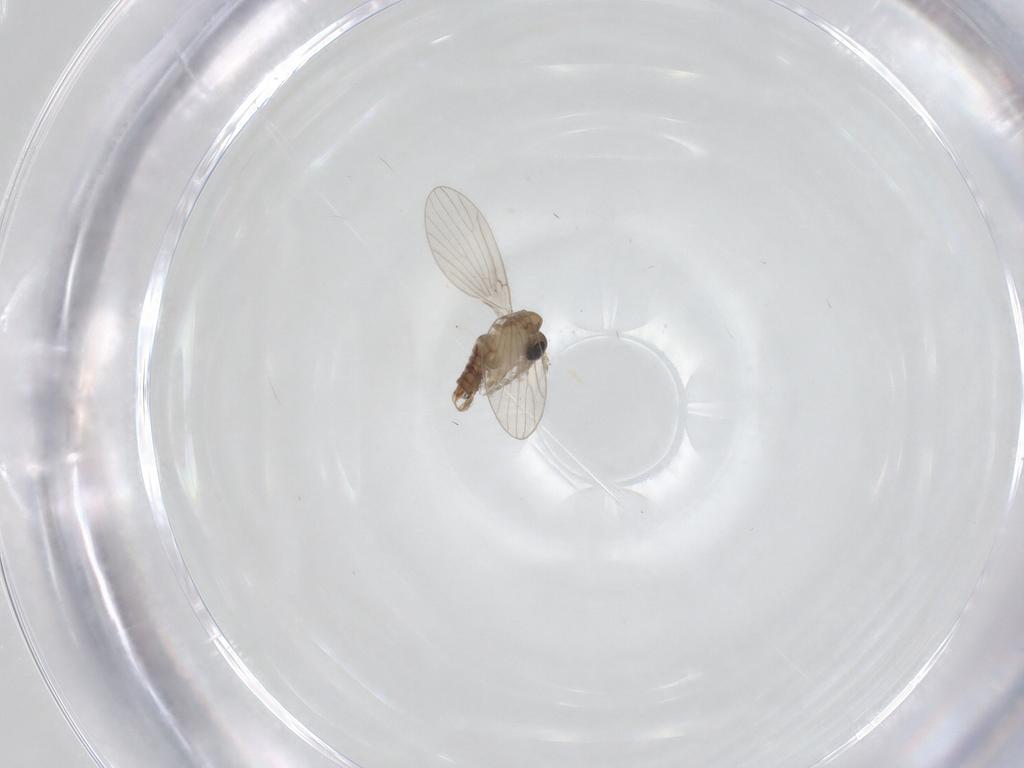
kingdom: Animalia
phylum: Arthropoda
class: Insecta
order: Diptera
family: Psychodidae
